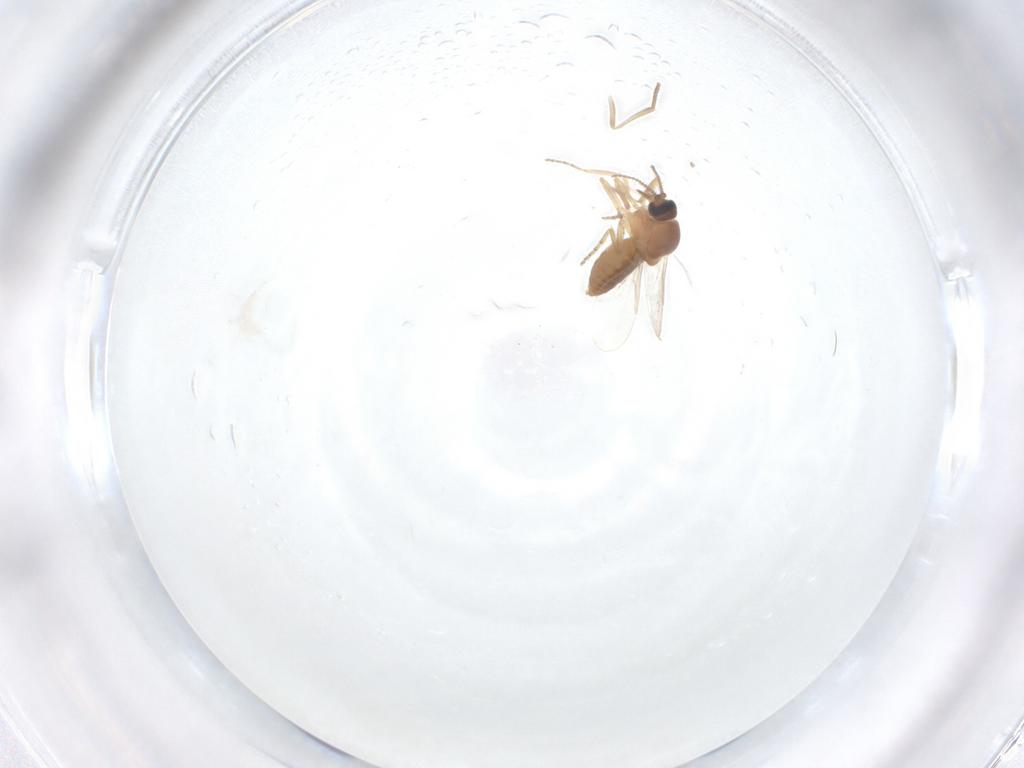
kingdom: Animalia
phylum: Arthropoda
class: Insecta
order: Diptera
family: Ceratopogonidae
